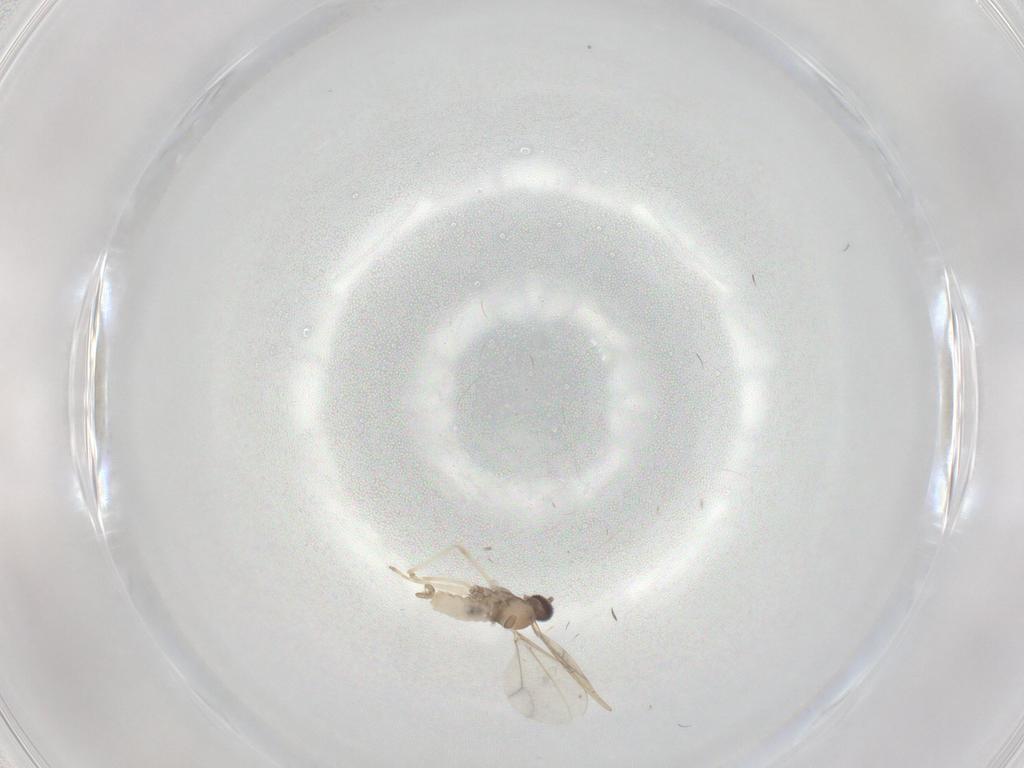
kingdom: Animalia
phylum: Arthropoda
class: Insecta
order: Diptera
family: Cecidomyiidae
